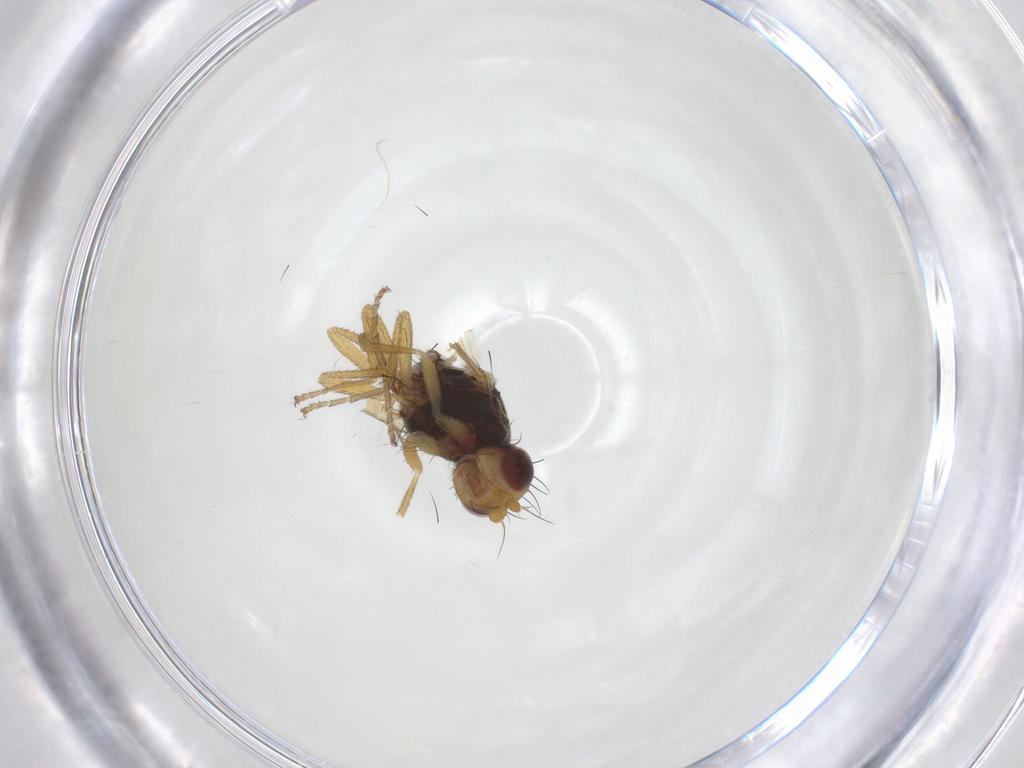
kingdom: Animalia
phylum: Arthropoda
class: Insecta
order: Diptera
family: Heleomyzidae
